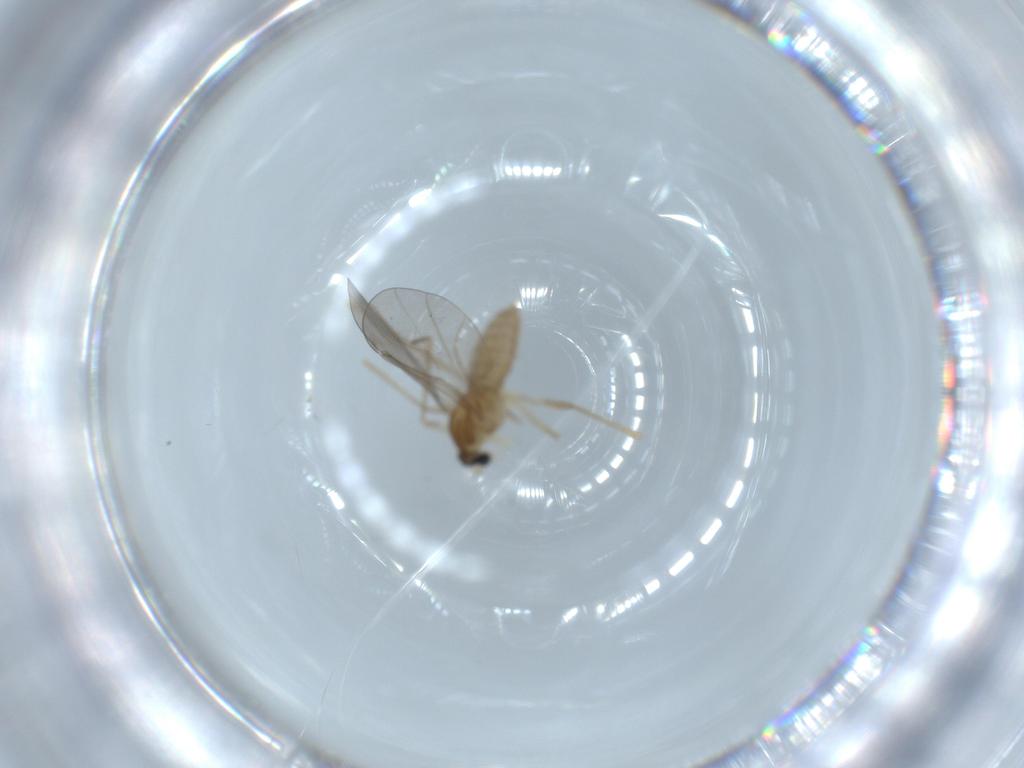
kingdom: Animalia
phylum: Arthropoda
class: Insecta
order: Diptera
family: Cecidomyiidae
